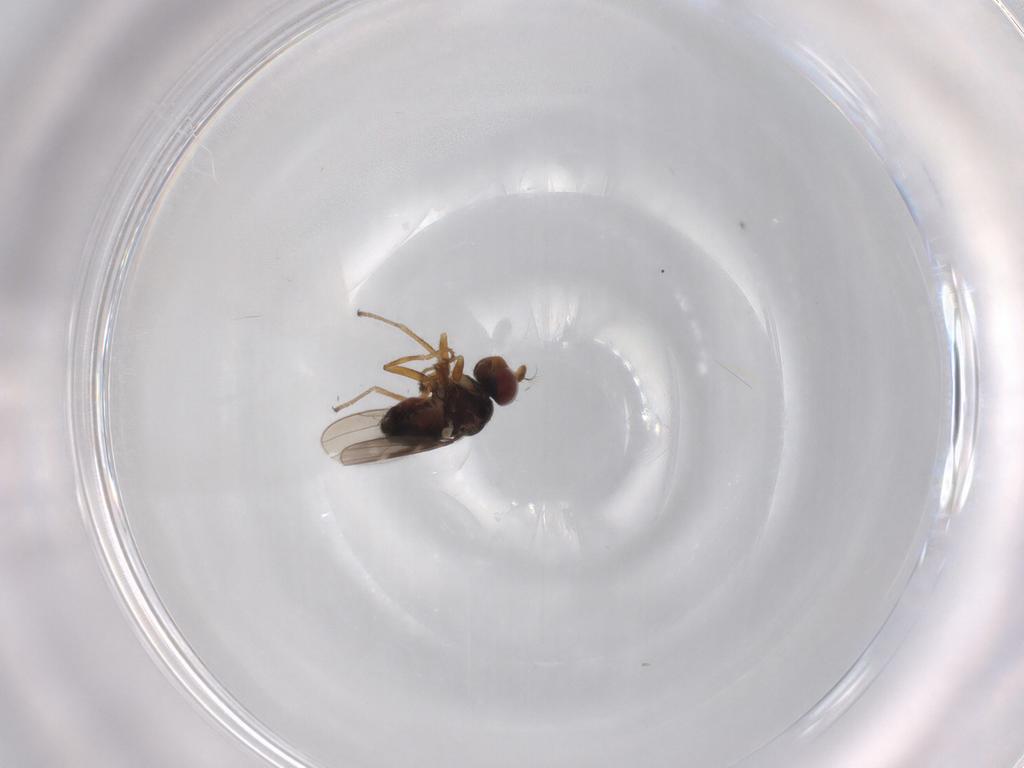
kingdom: Animalia
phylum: Arthropoda
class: Insecta
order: Diptera
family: Ephydridae
